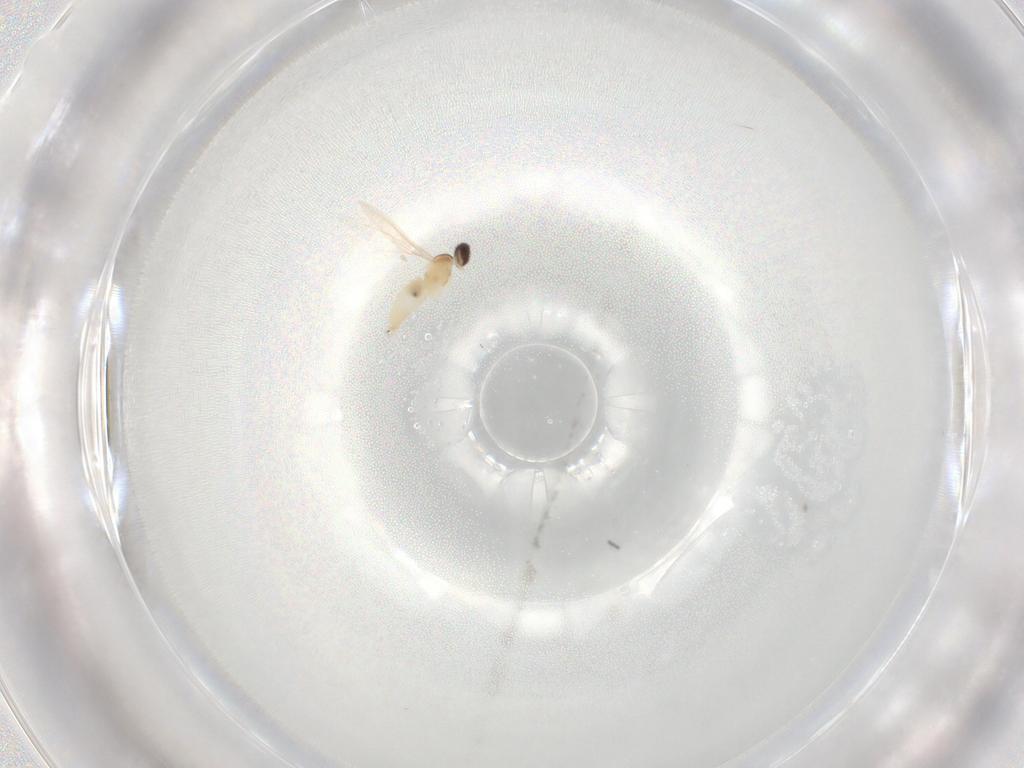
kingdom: Animalia
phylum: Arthropoda
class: Insecta
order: Diptera
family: Cecidomyiidae
